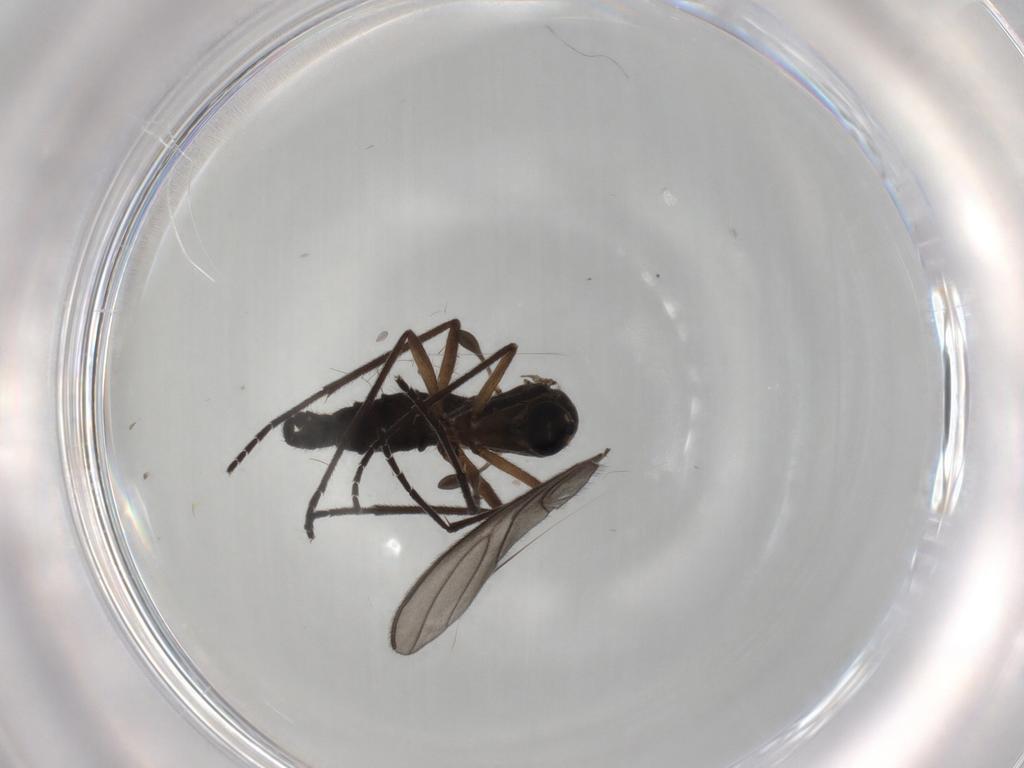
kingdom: Animalia
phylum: Arthropoda
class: Insecta
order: Diptera
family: Sciaridae
